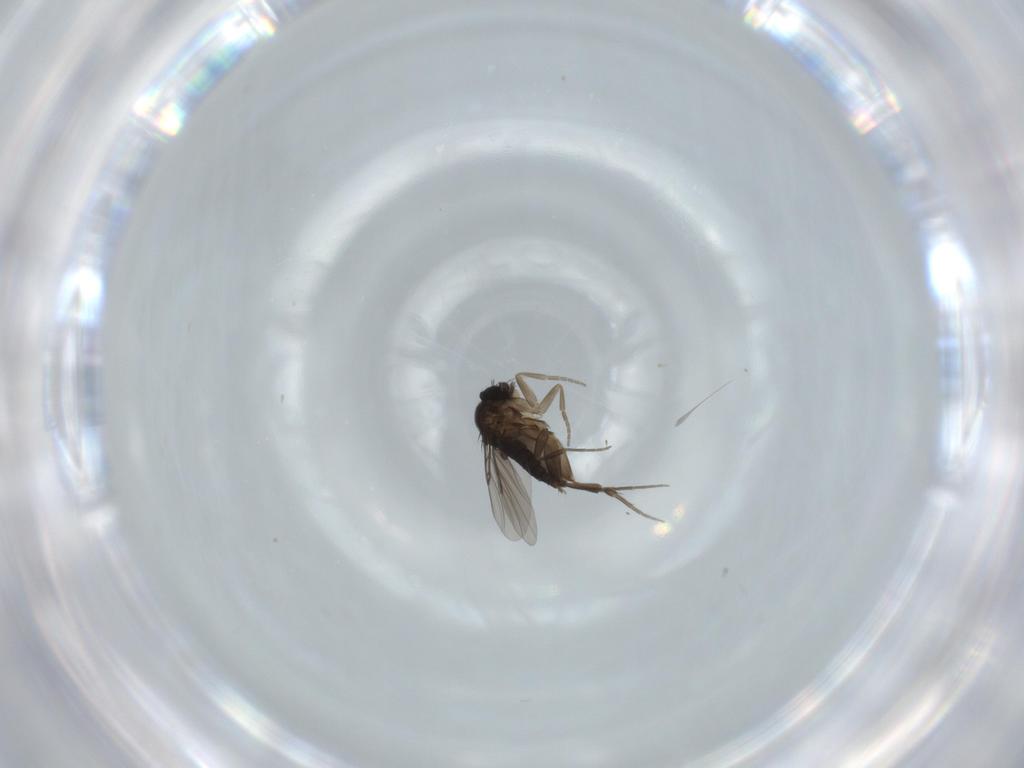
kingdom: Animalia
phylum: Arthropoda
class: Insecta
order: Diptera
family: Phoridae
